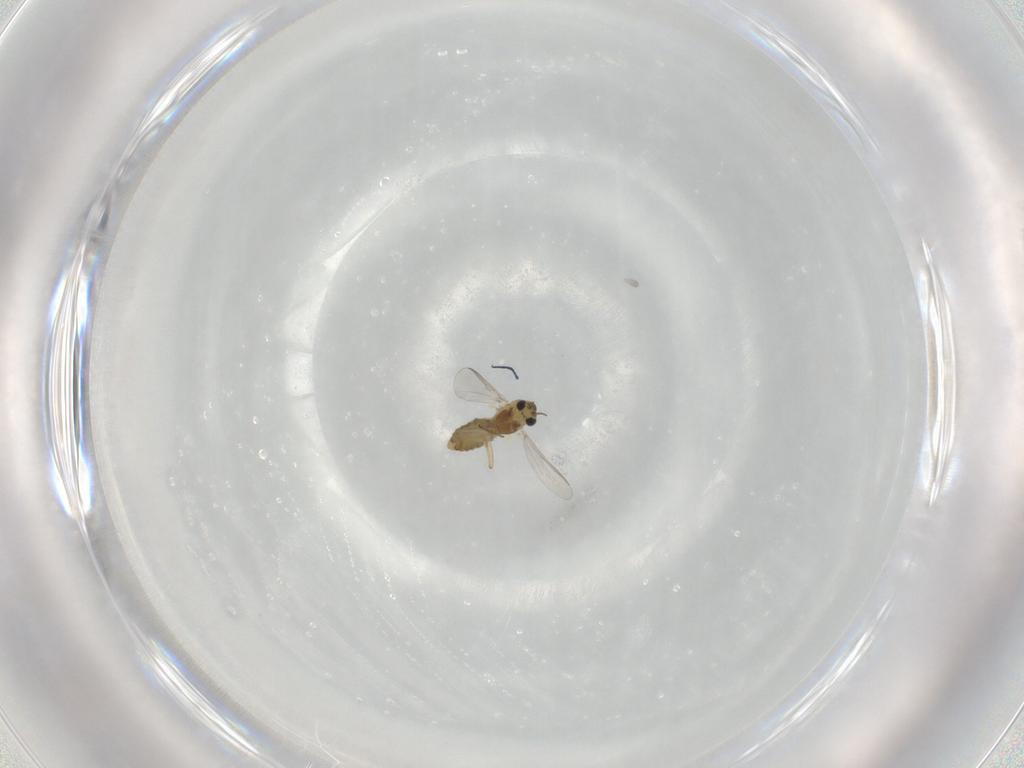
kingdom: Animalia
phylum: Arthropoda
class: Insecta
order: Diptera
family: Chironomidae
